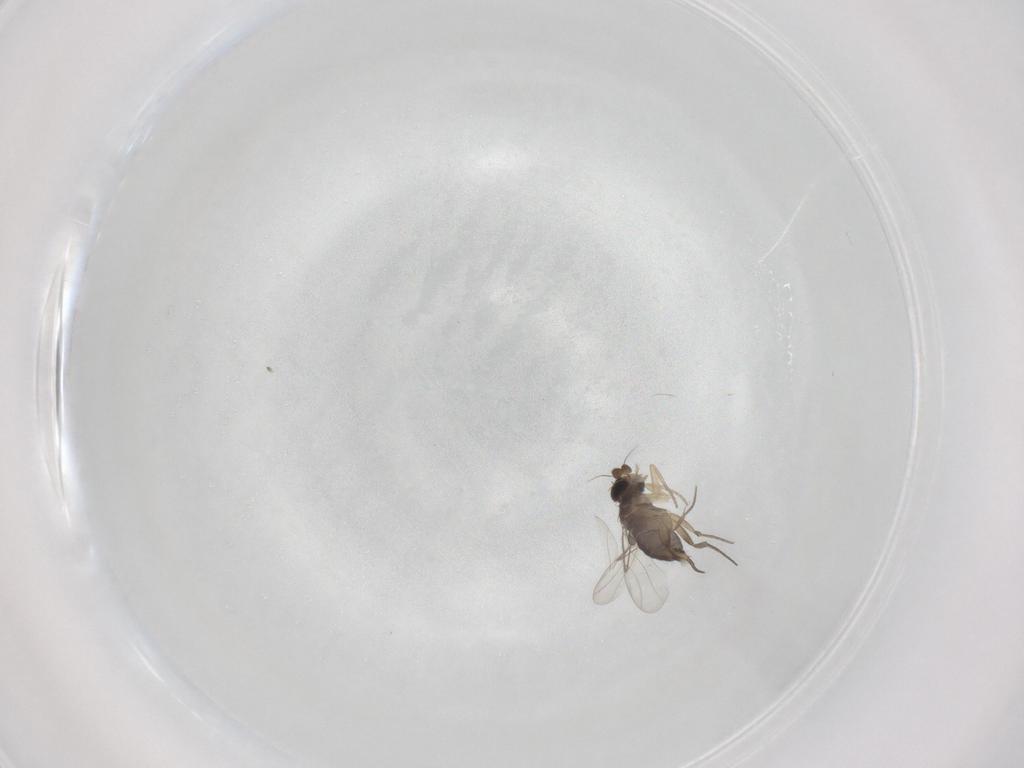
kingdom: Animalia
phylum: Arthropoda
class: Insecta
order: Diptera
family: Phoridae
